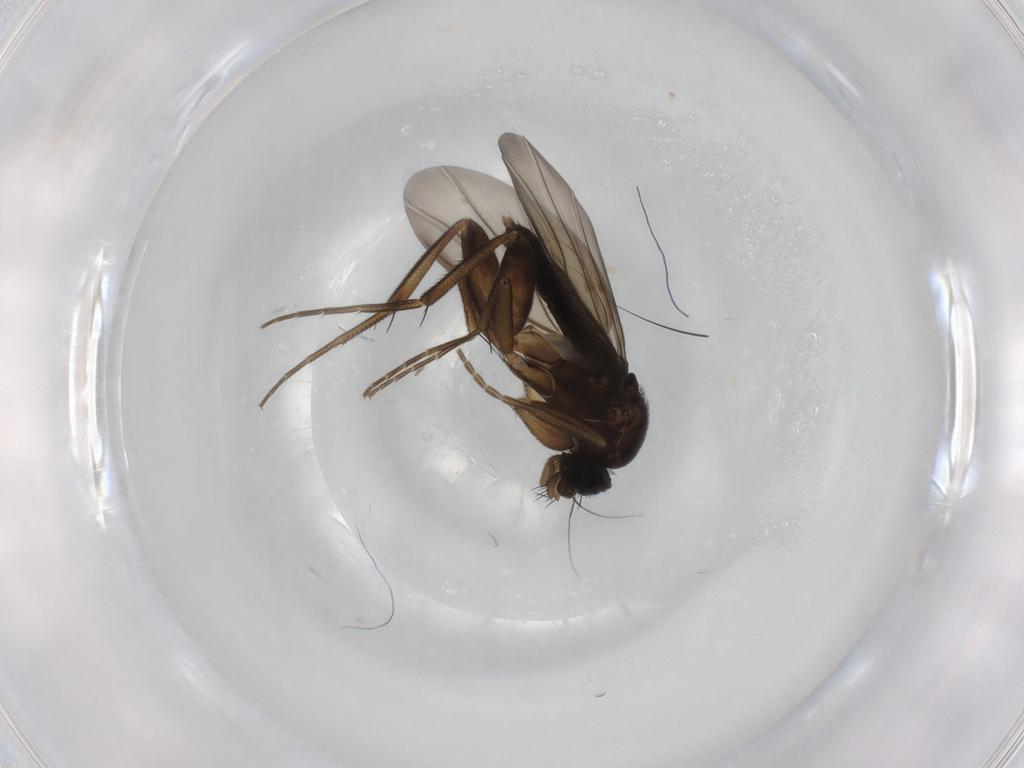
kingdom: Animalia
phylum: Arthropoda
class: Insecta
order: Diptera
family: Phoridae
